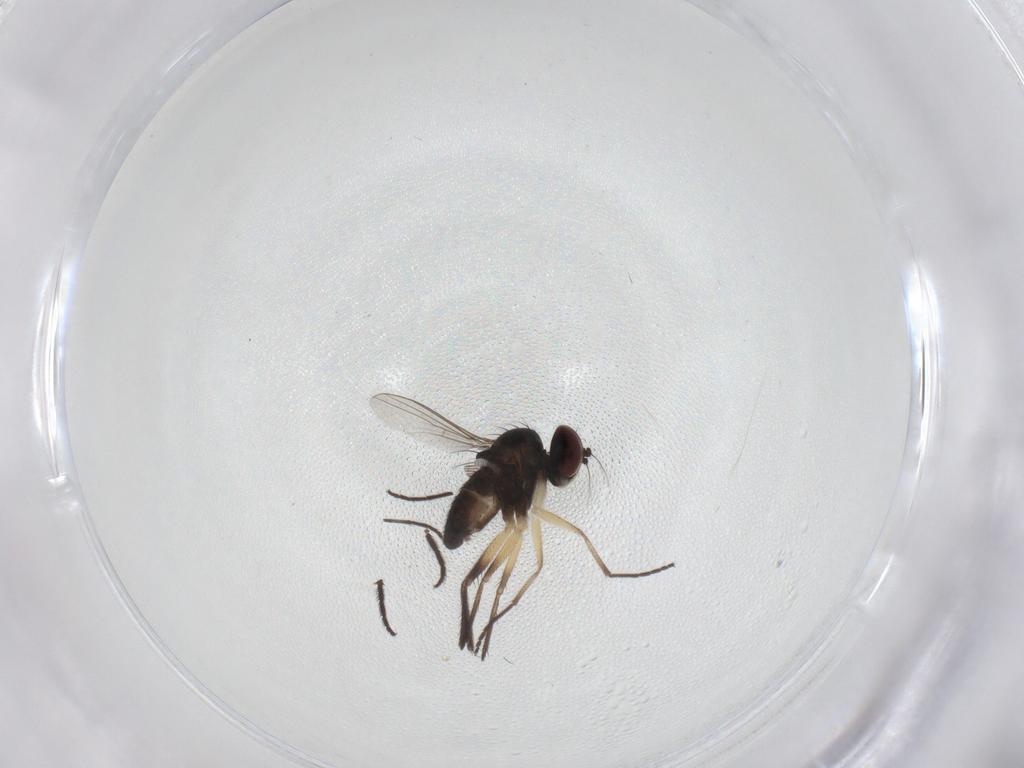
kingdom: Animalia
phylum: Arthropoda
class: Insecta
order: Diptera
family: Dolichopodidae
